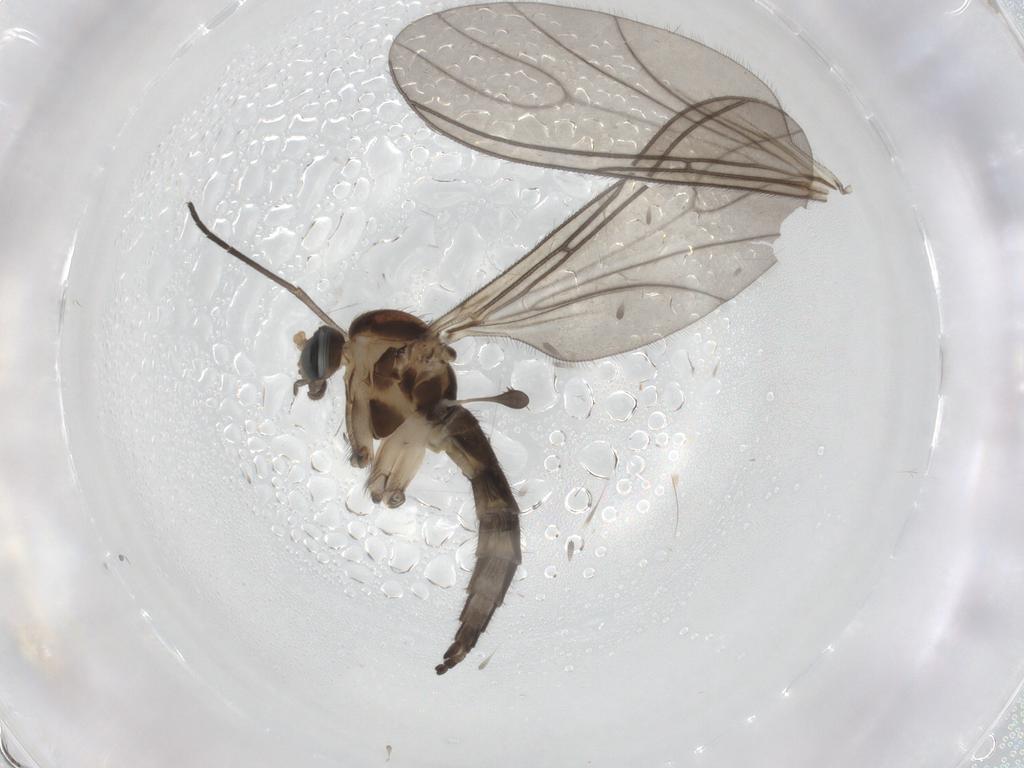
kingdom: Animalia
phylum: Arthropoda
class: Insecta
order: Diptera
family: Sciaridae
